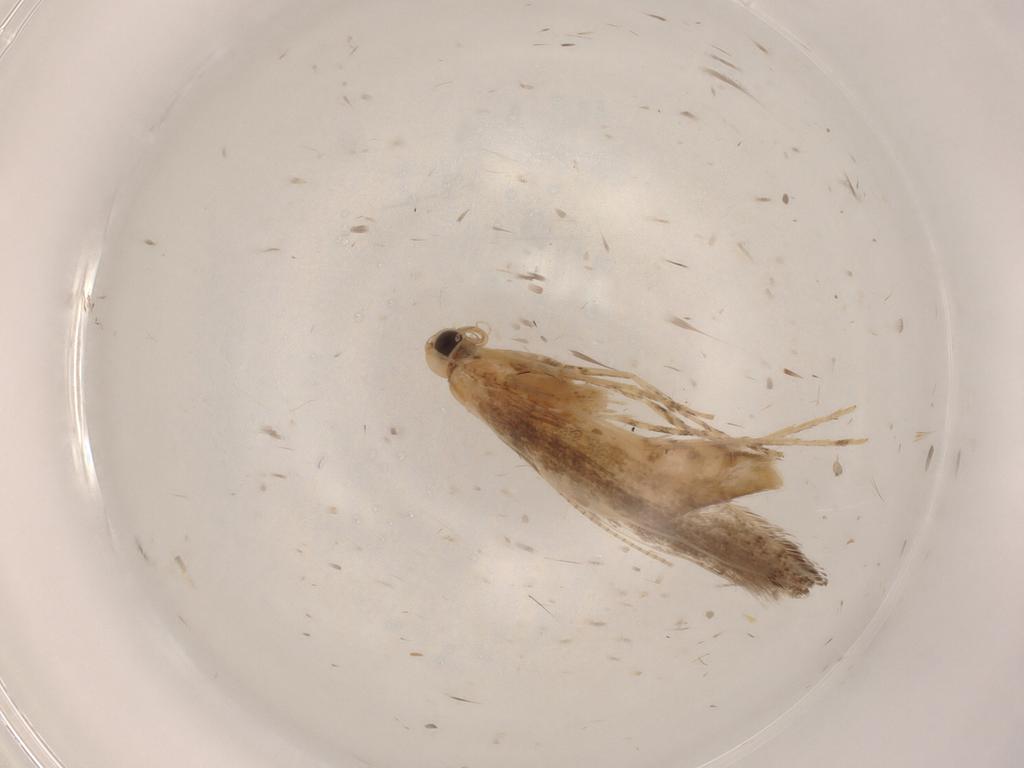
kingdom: Animalia
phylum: Arthropoda
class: Insecta
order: Lepidoptera
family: Gracillariidae
